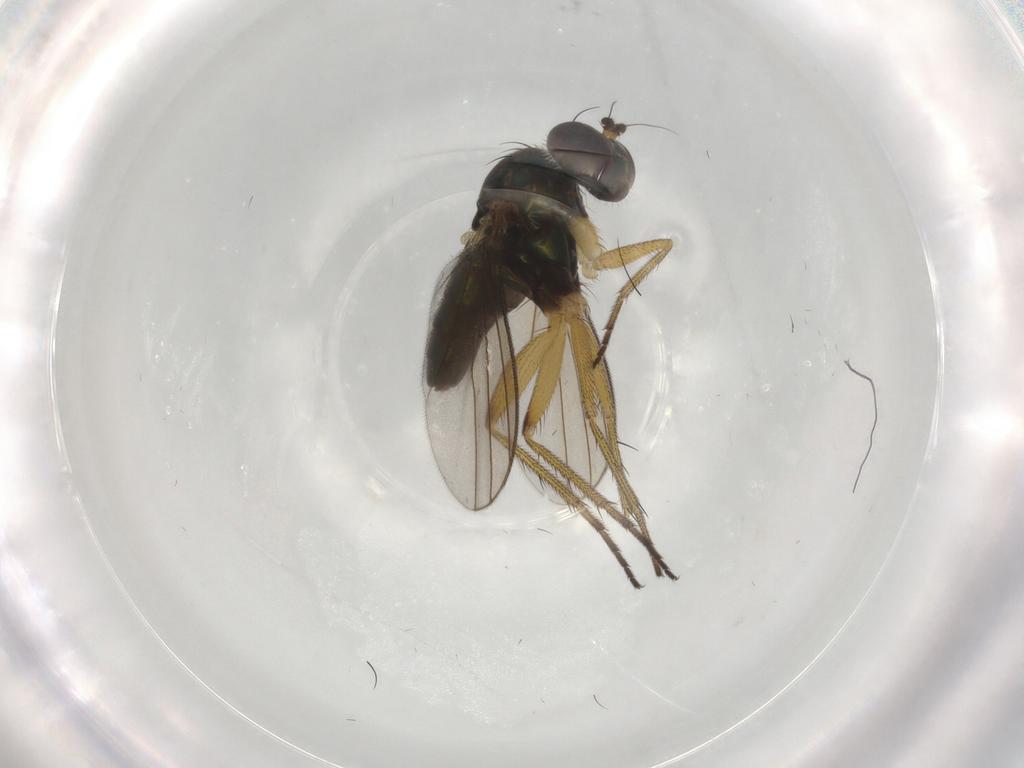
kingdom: Animalia
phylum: Arthropoda
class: Insecta
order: Diptera
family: Dolichopodidae
